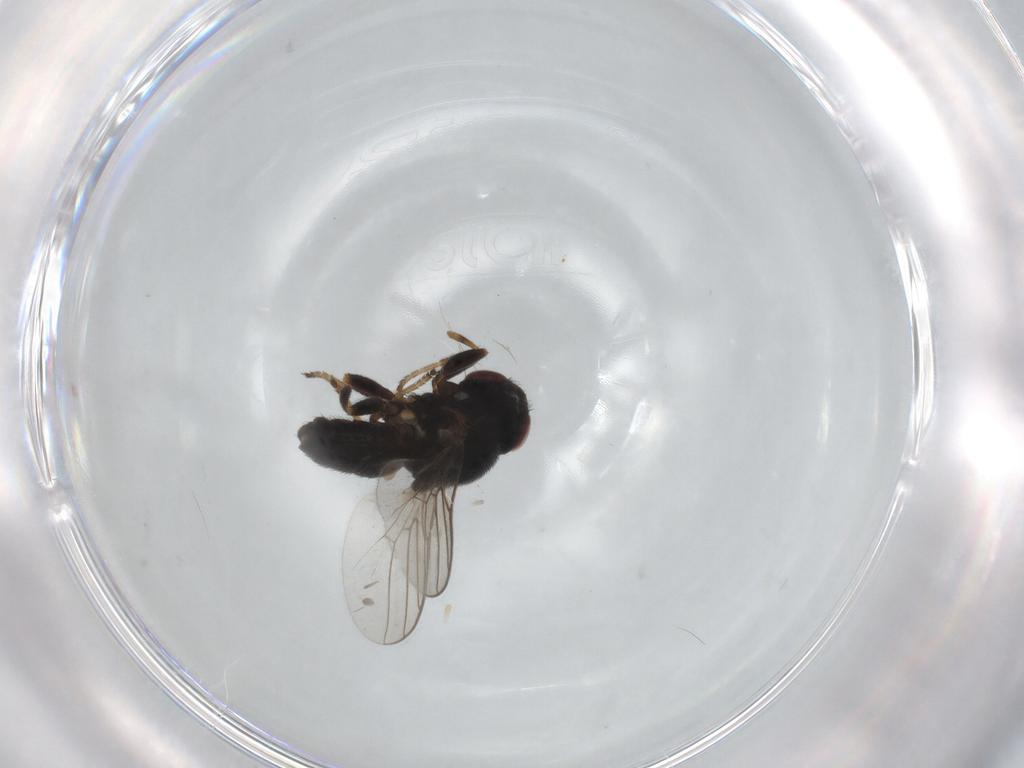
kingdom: Animalia
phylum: Arthropoda
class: Insecta
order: Diptera
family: Chloropidae
